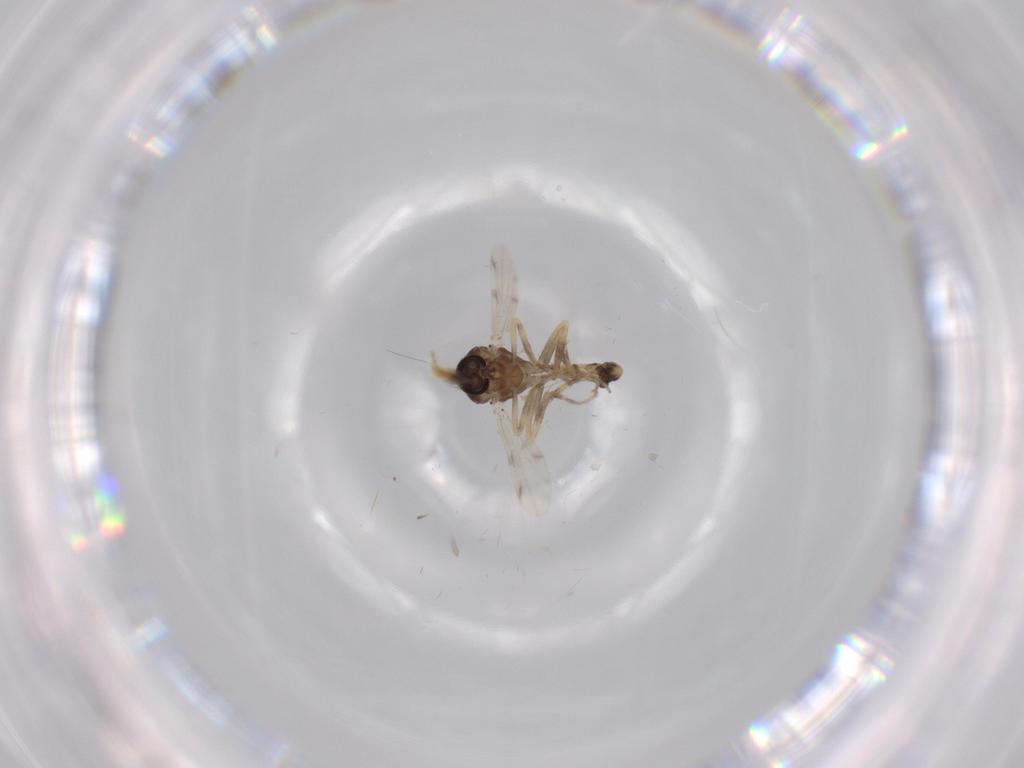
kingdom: Animalia
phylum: Arthropoda
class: Insecta
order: Diptera
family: Ceratopogonidae
